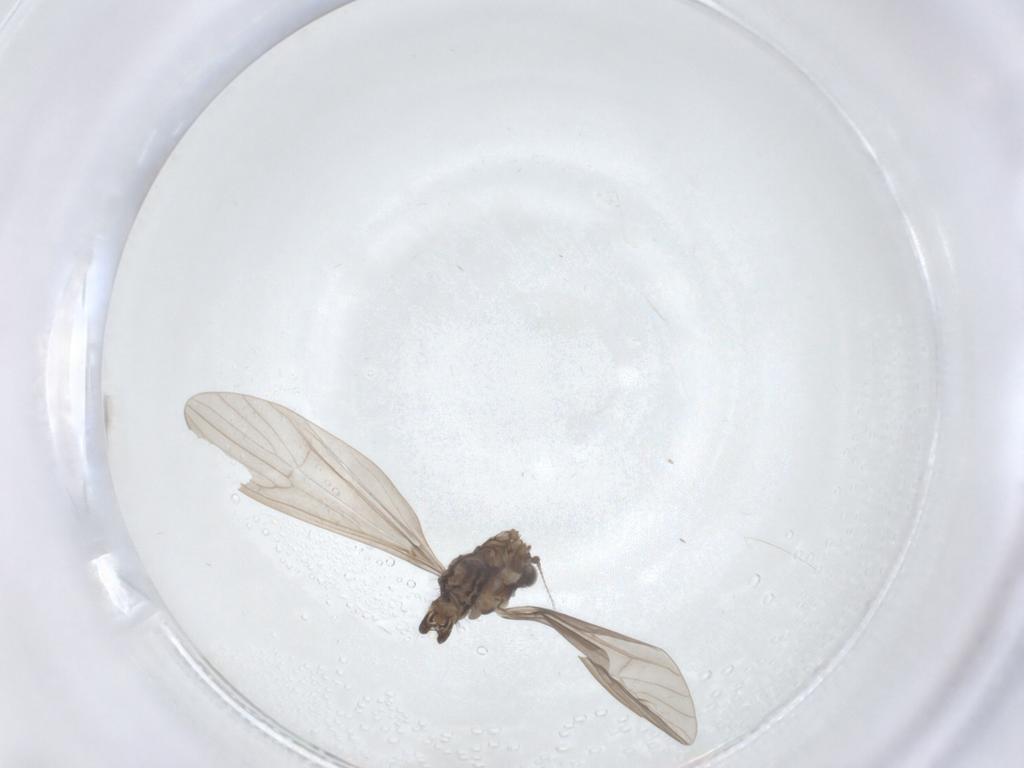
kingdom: Animalia
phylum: Arthropoda
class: Insecta
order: Diptera
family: Limoniidae
